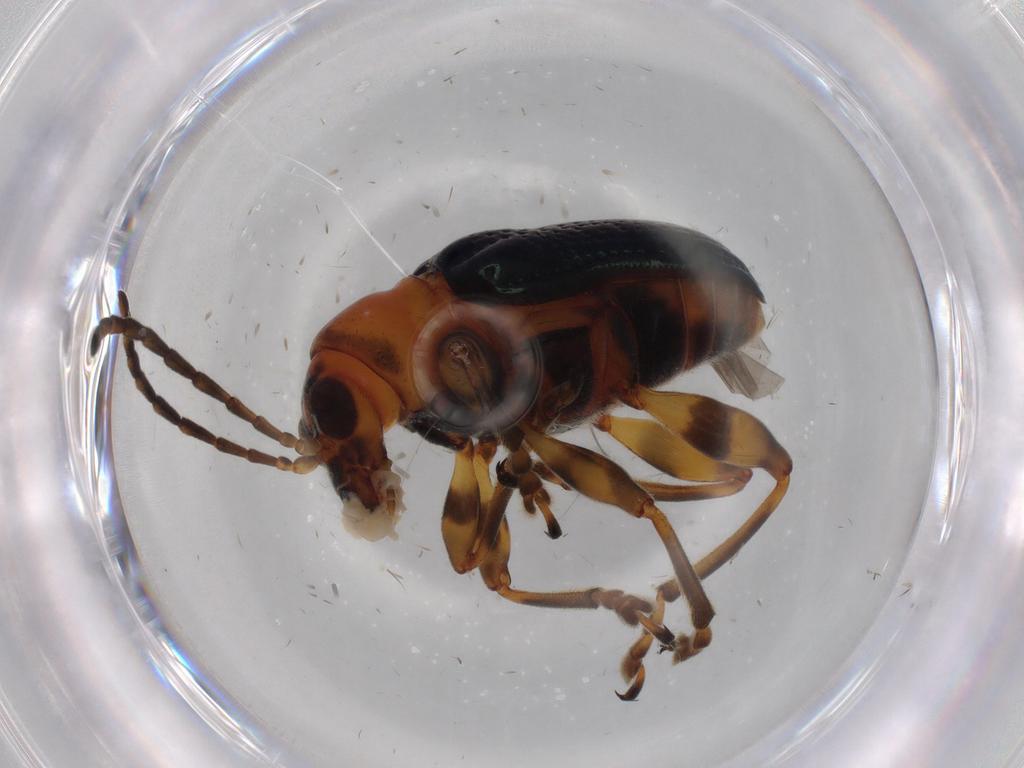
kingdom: Animalia
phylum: Arthropoda
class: Insecta
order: Coleoptera
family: Chrysomelidae
